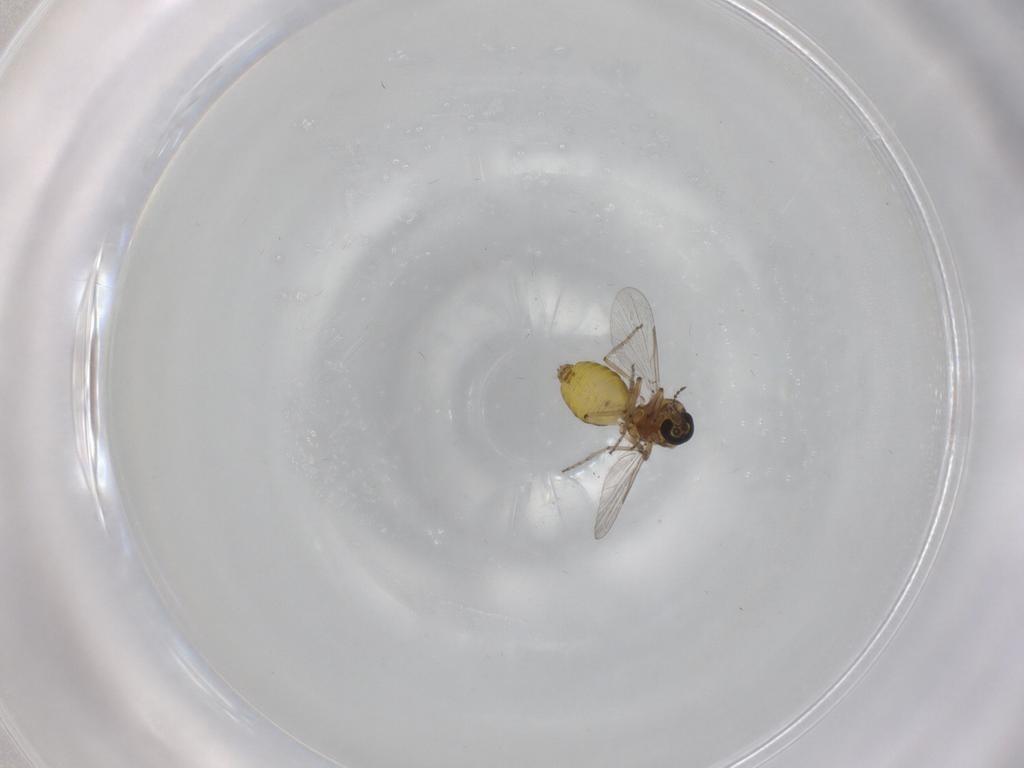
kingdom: Animalia
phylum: Arthropoda
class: Insecta
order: Diptera
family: Ceratopogonidae
